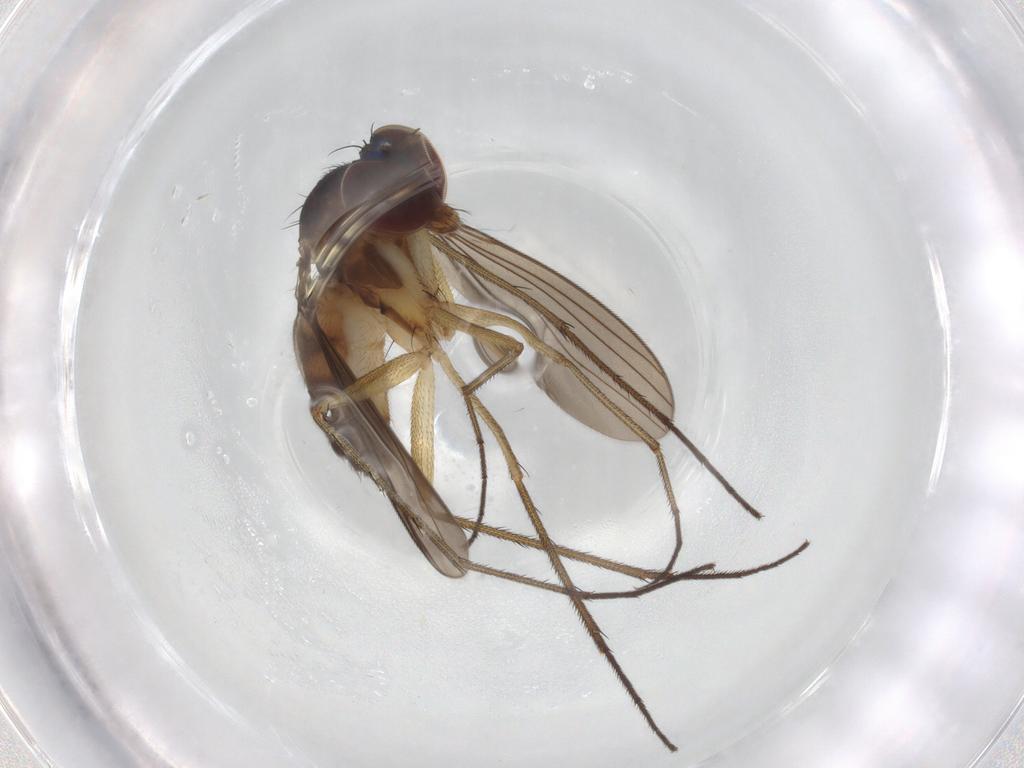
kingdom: Animalia
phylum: Arthropoda
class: Insecta
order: Diptera
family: Dolichopodidae
